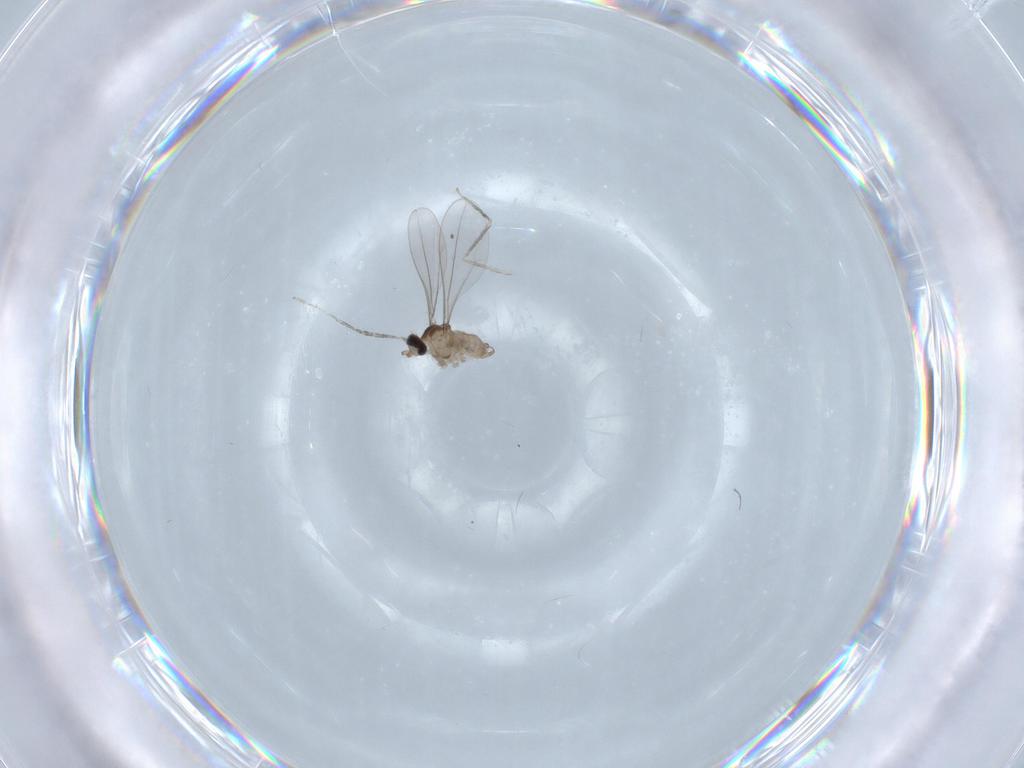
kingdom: Animalia
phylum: Arthropoda
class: Insecta
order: Diptera
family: Cecidomyiidae
